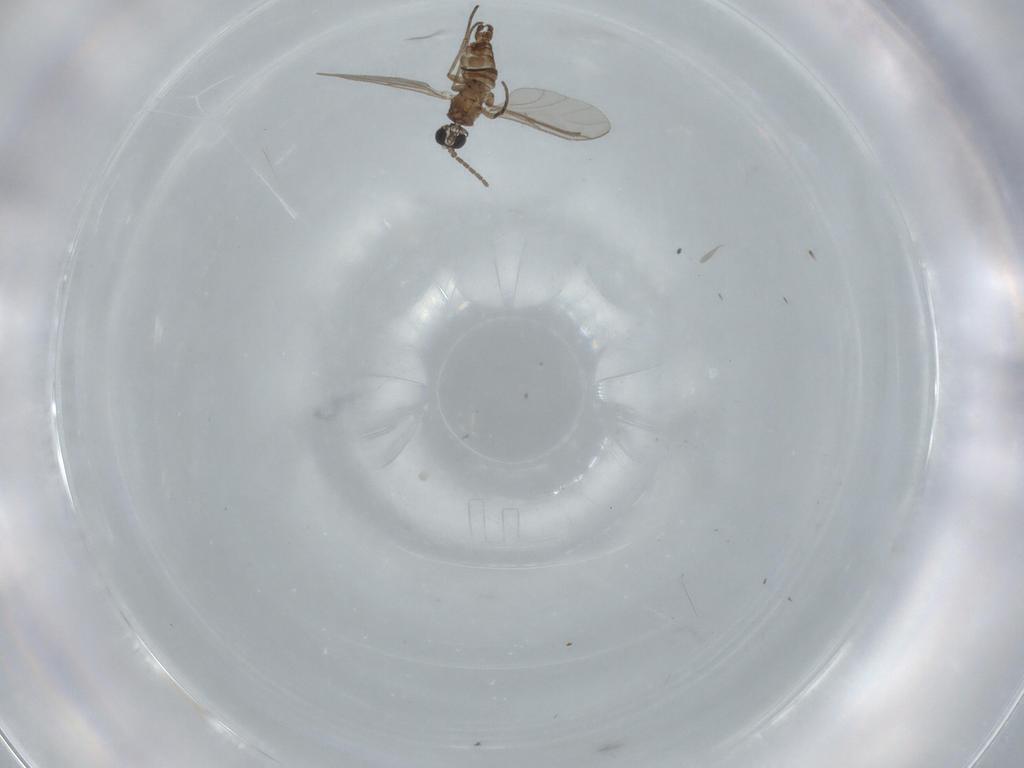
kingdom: Animalia
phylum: Arthropoda
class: Insecta
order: Diptera
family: Sciaridae
